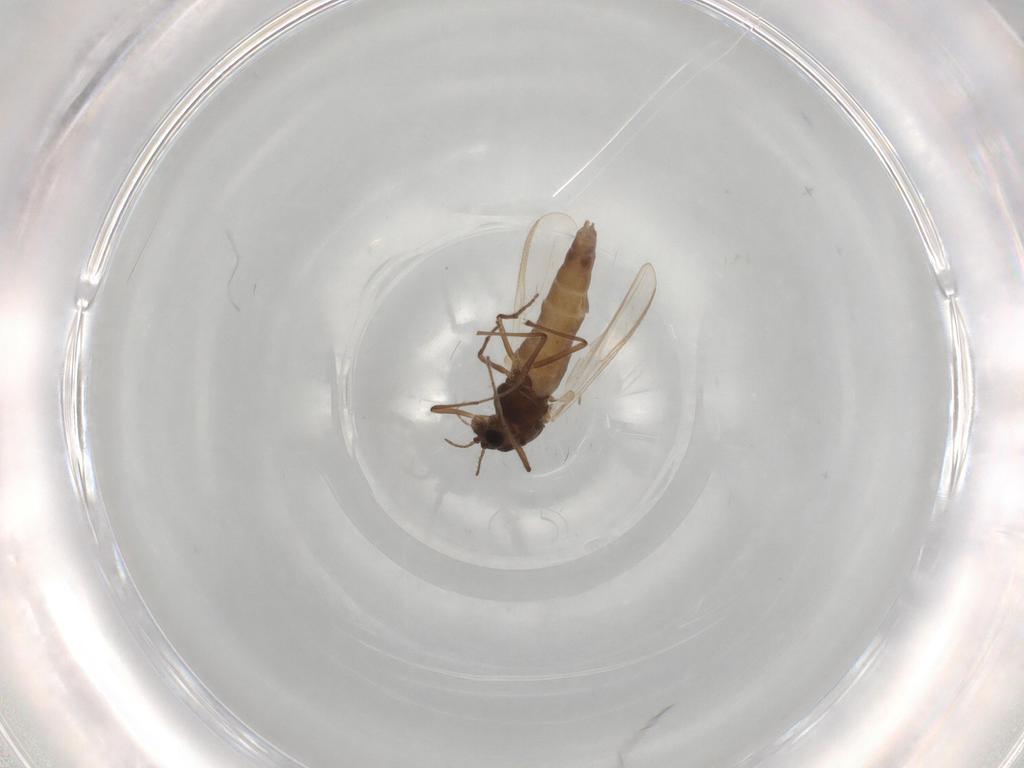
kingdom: Animalia
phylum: Arthropoda
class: Insecta
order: Diptera
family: Chironomidae
